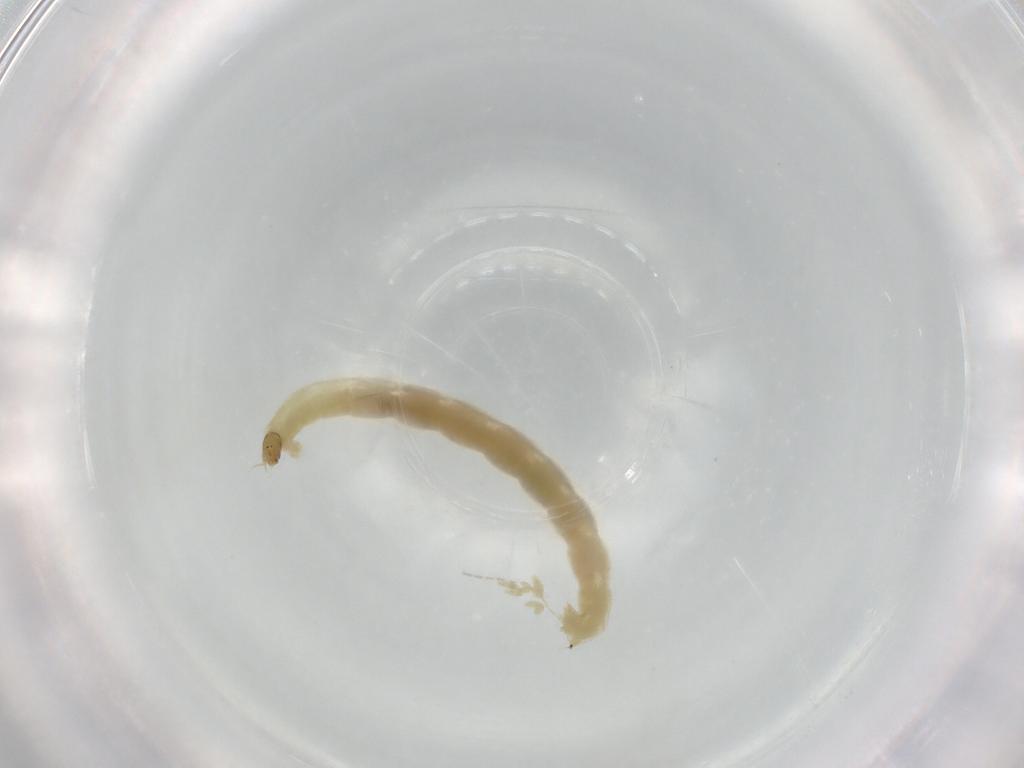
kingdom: Animalia
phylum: Arthropoda
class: Insecta
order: Diptera
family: Chironomidae
